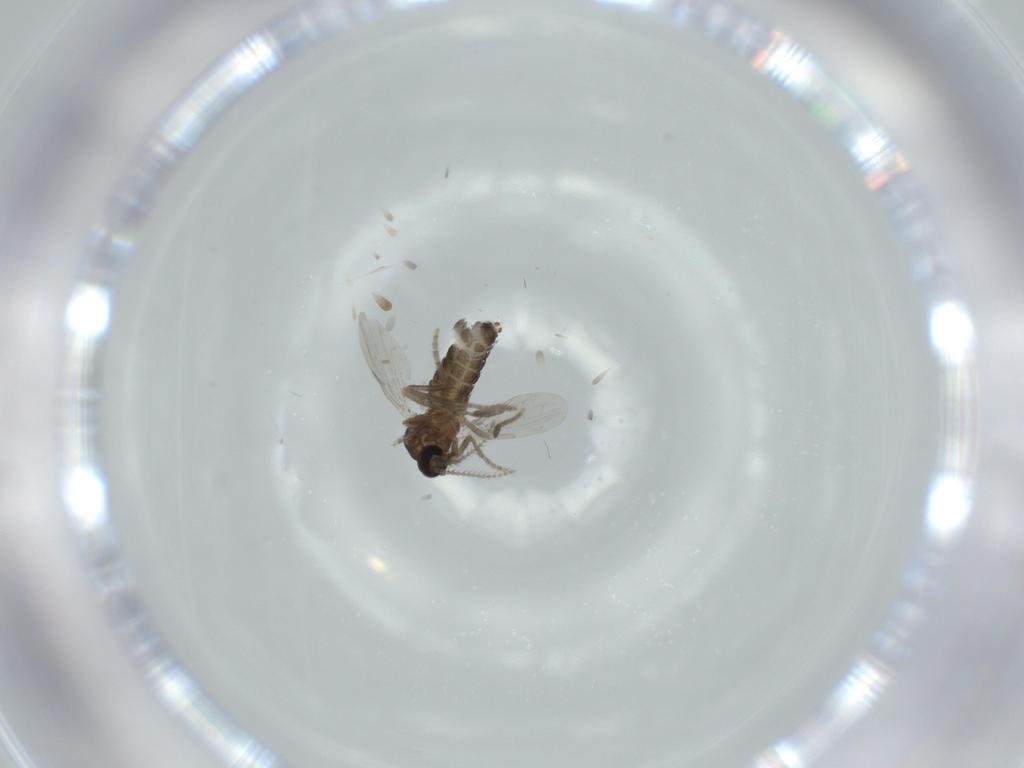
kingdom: Animalia
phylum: Arthropoda
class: Insecta
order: Diptera
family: Ceratopogonidae
